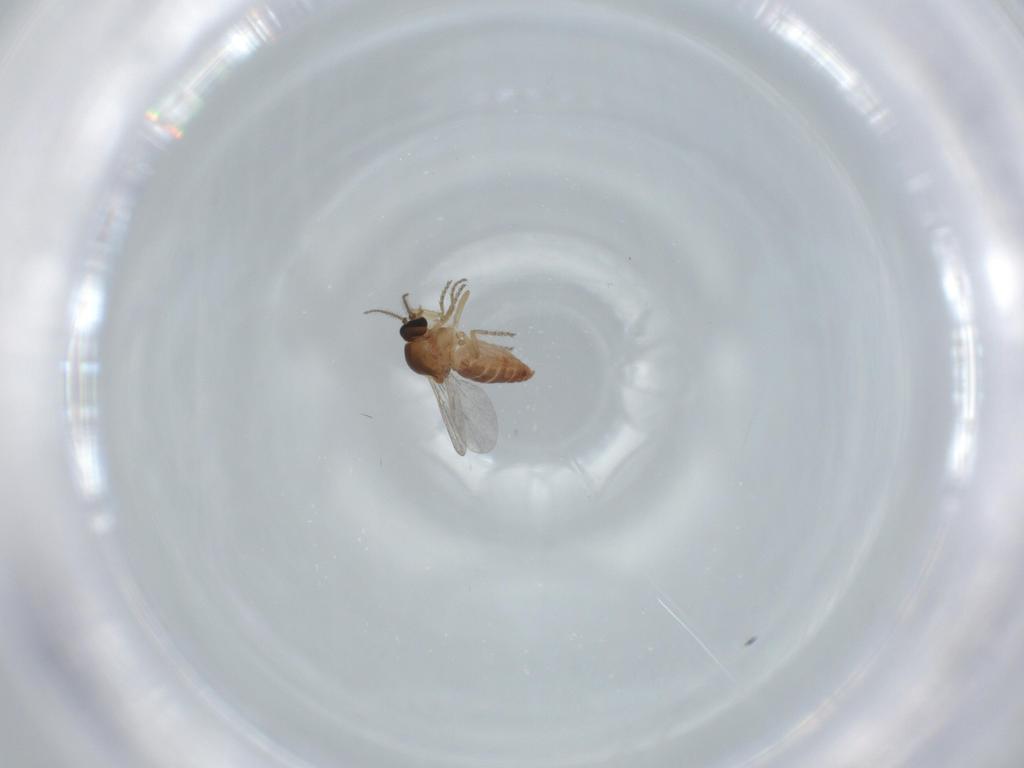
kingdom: Animalia
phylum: Arthropoda
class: Insecta
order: Diptera
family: Ceratopogonidae
